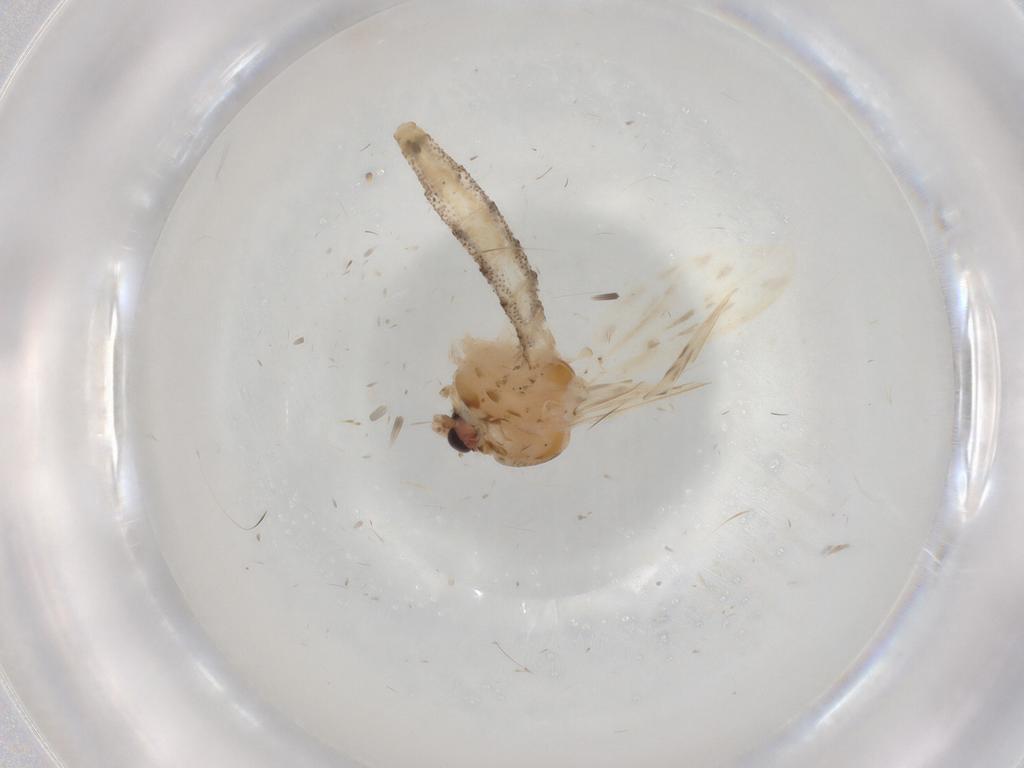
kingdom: Animalia
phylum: Arthropoda
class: Insecta
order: Diptera
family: Chaoboridae
